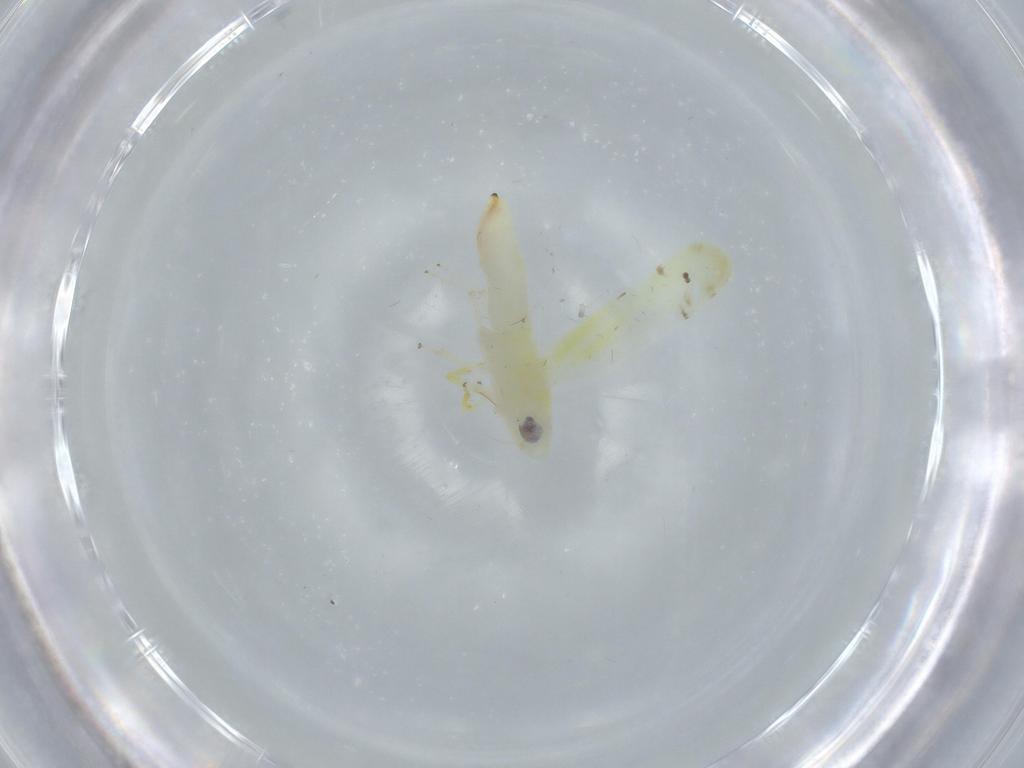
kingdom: Animalia
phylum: Arthropoda
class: Insecta
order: Hemiptera
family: Cicadellidae
